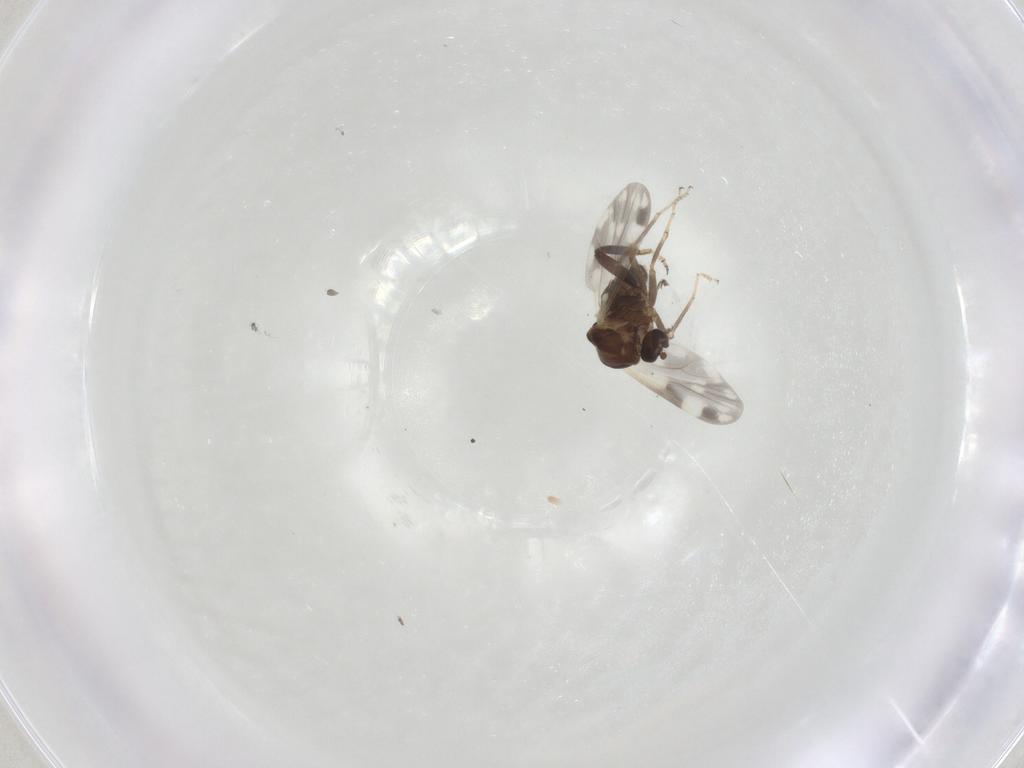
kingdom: Animalia
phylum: Arthropoda
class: Insecta
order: Diptera
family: Ceratopogonidae
